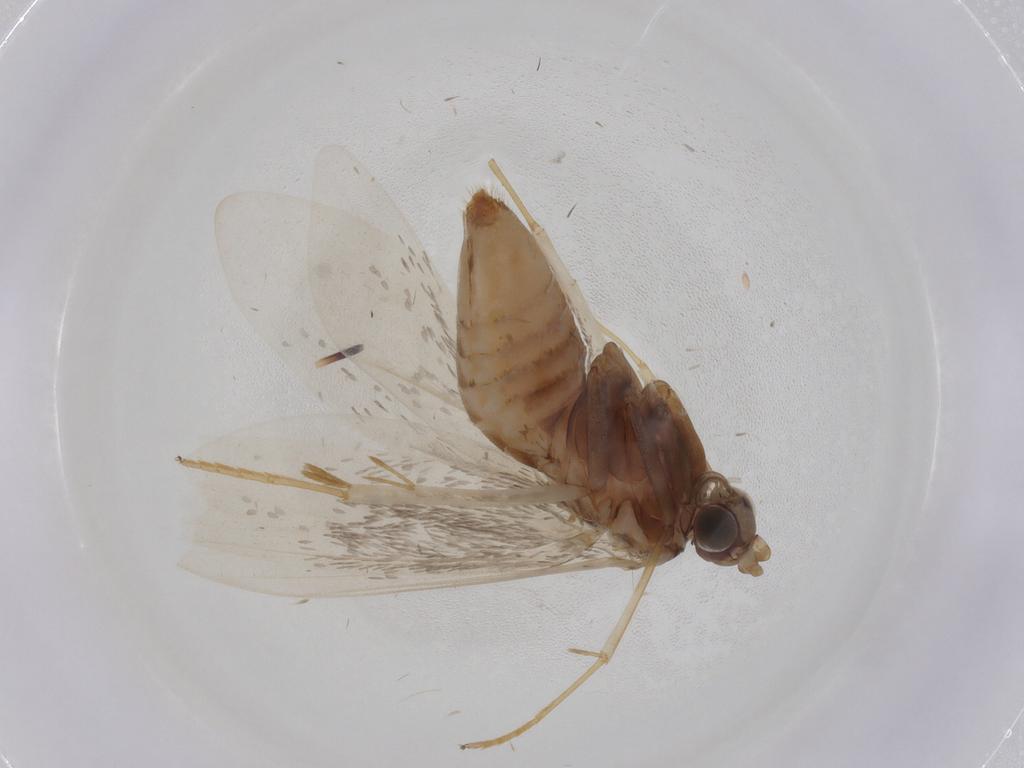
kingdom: Animalia
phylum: Arthropoda
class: Insecta
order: Lepidoptera
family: Adelidae
